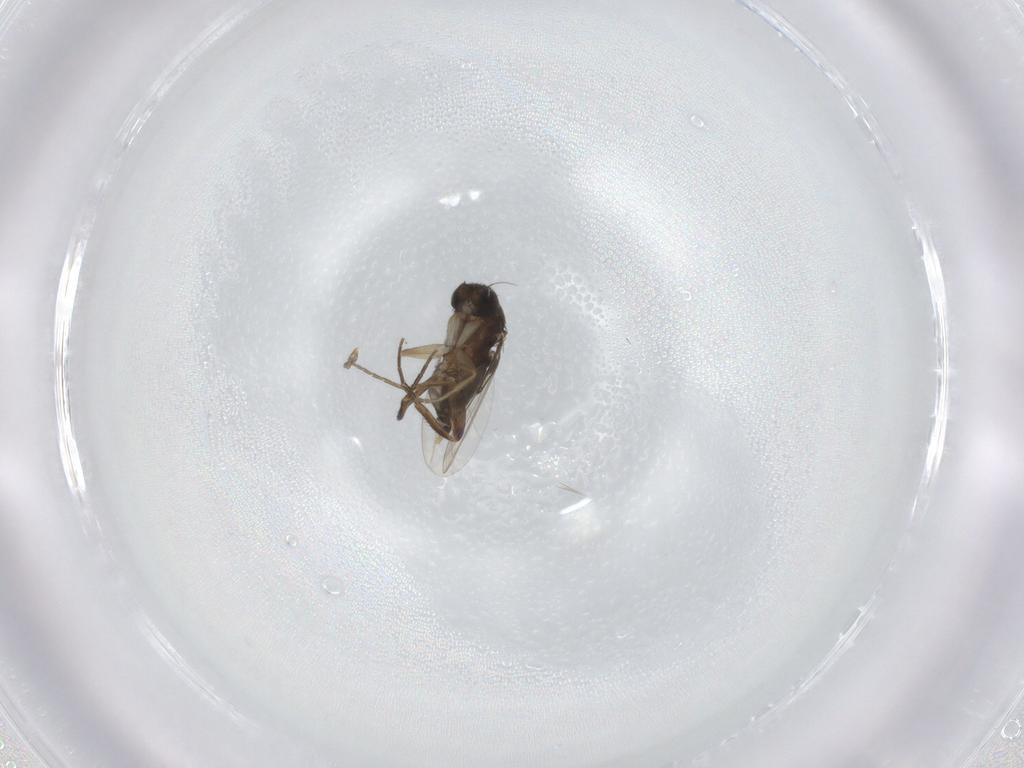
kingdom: Animalia
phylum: Arthropoda
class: Insecta
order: Diptera
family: Phoridae
